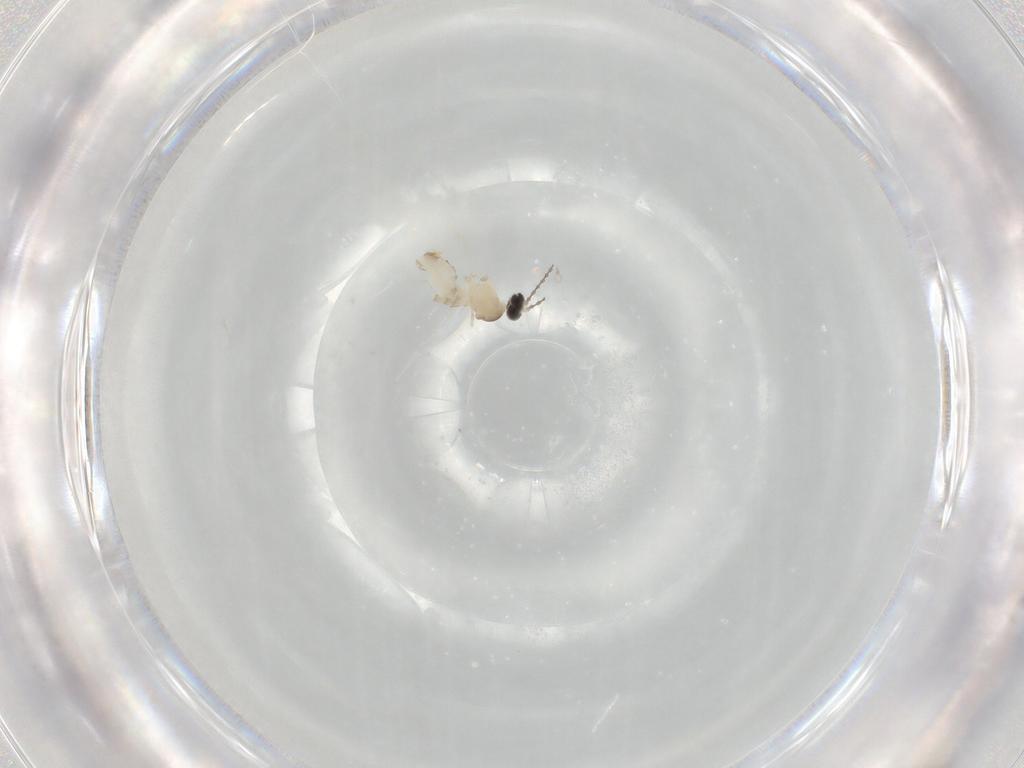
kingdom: Animalia
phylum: Arthropoda
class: Insecta
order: Diptera
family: Cecidomyiidae
